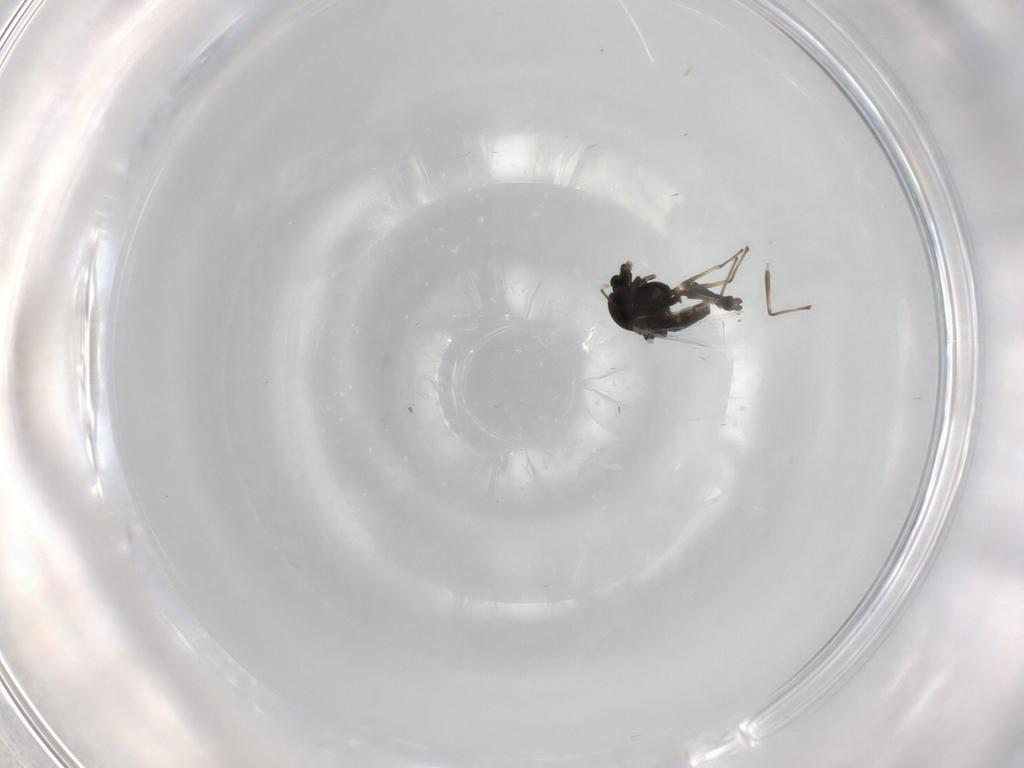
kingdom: Animalia
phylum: Arthropoda
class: Insecta
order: Diptera
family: Chironomidae
